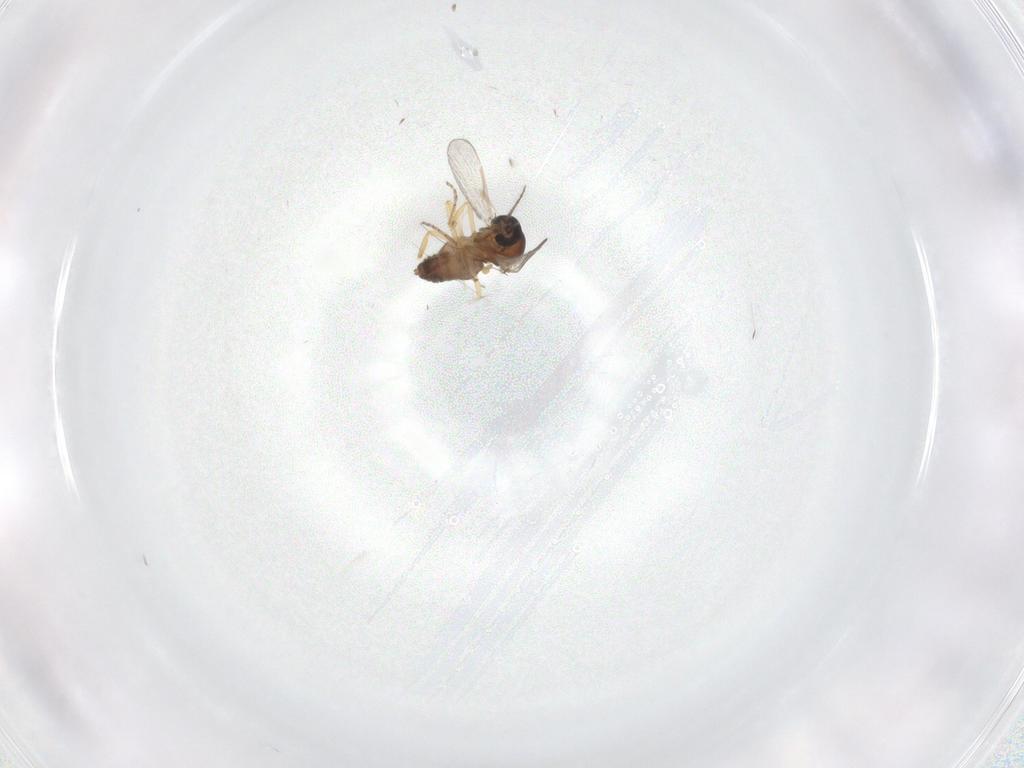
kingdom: Animalia
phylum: Arthropoda
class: Insecta
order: Diptera
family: Ceratopogonidae
